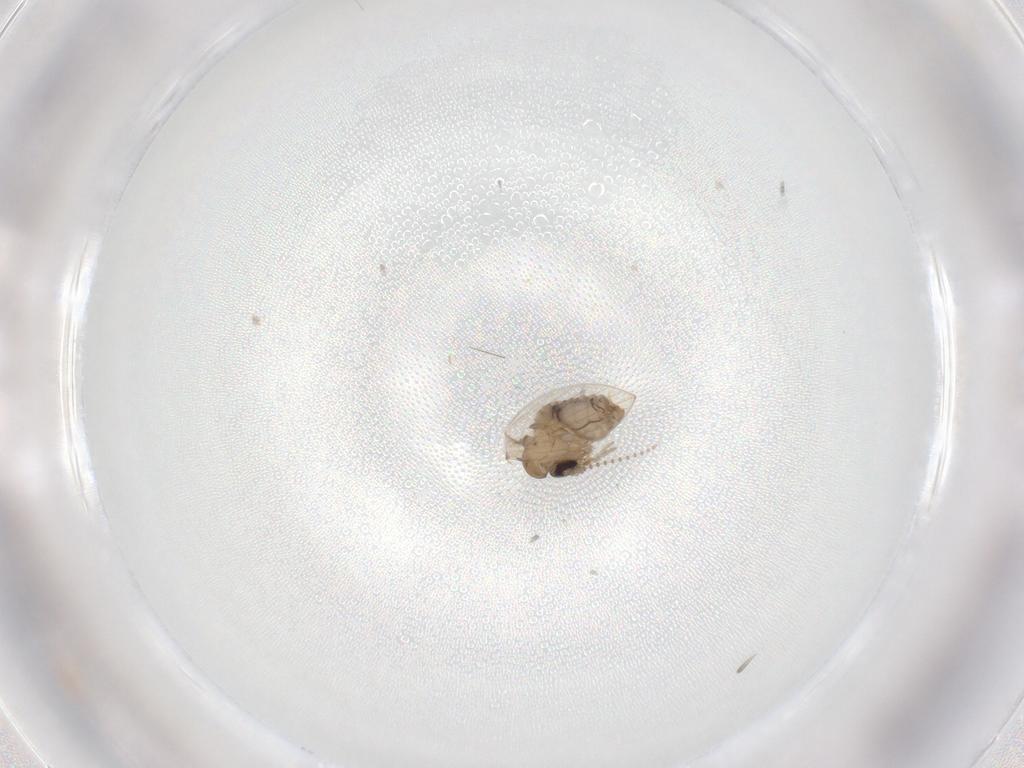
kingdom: Animalia
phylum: Arthropoda
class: Insecta
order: Diptera
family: Psychodidae
